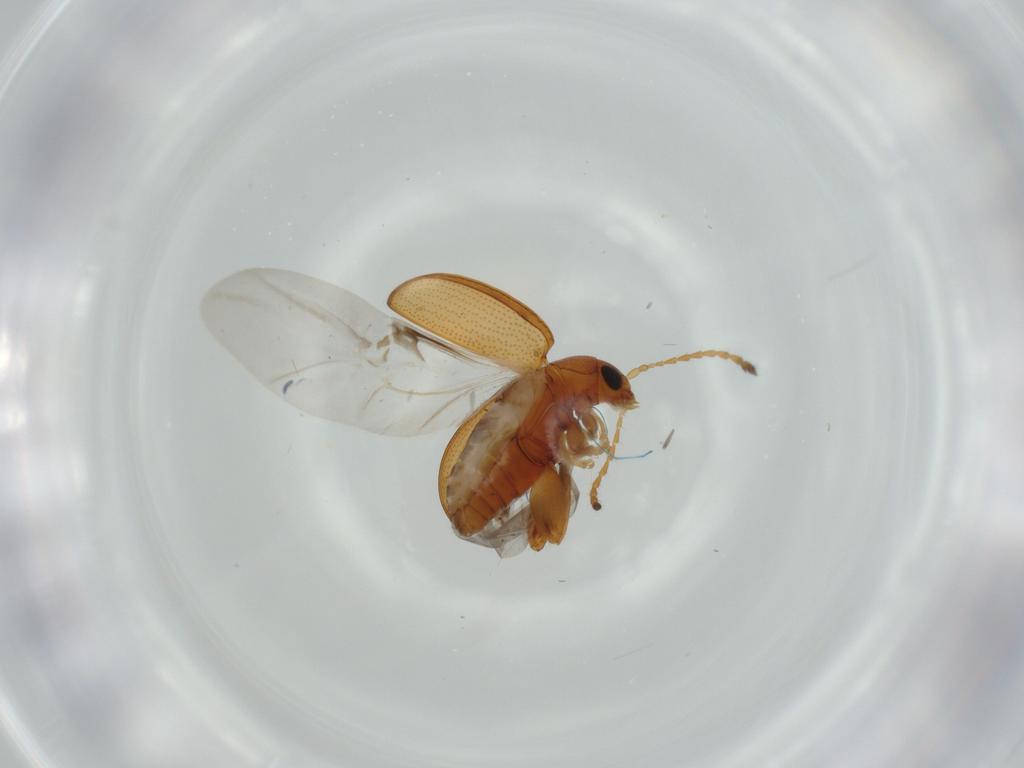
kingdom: Animalia
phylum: Arthropoda
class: Insecta
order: Coleoptera
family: Chrysomelidae
